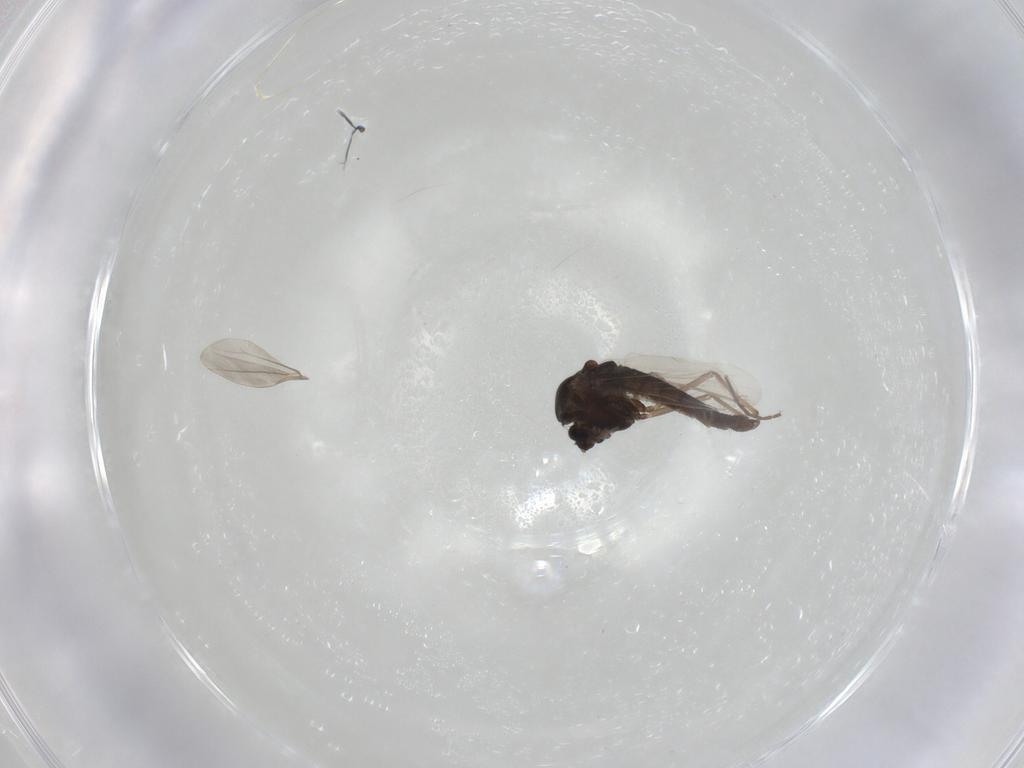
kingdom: Animalia
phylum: Arthropoda
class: Insecta
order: Diptera
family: Chironomidae
